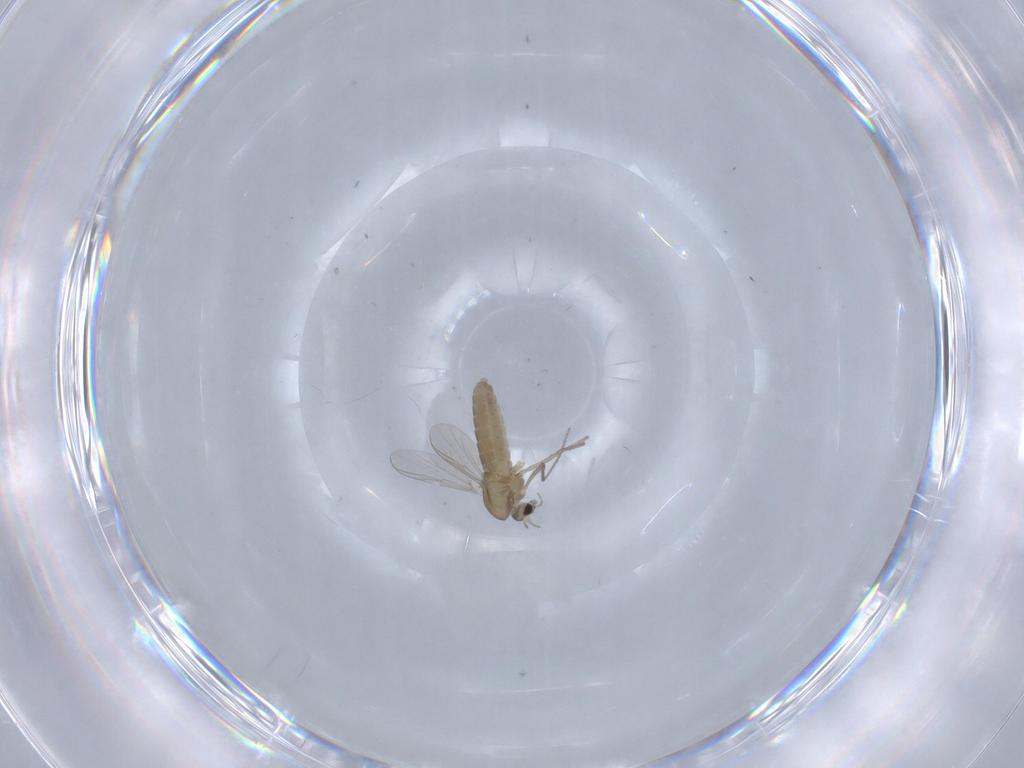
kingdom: Animalia
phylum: Arthropoda
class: Insecta
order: Diptera
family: Chironomidae
